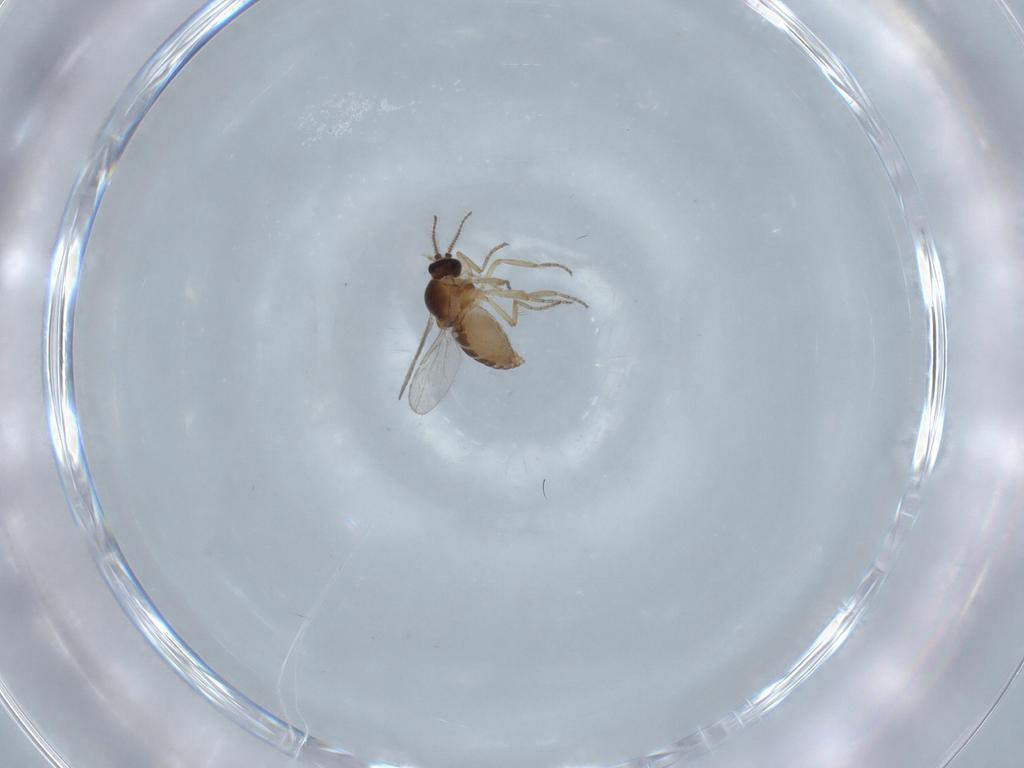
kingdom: Animalia
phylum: Arthropoda
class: Insecta
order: Diptera
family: Ceratopogonidae
